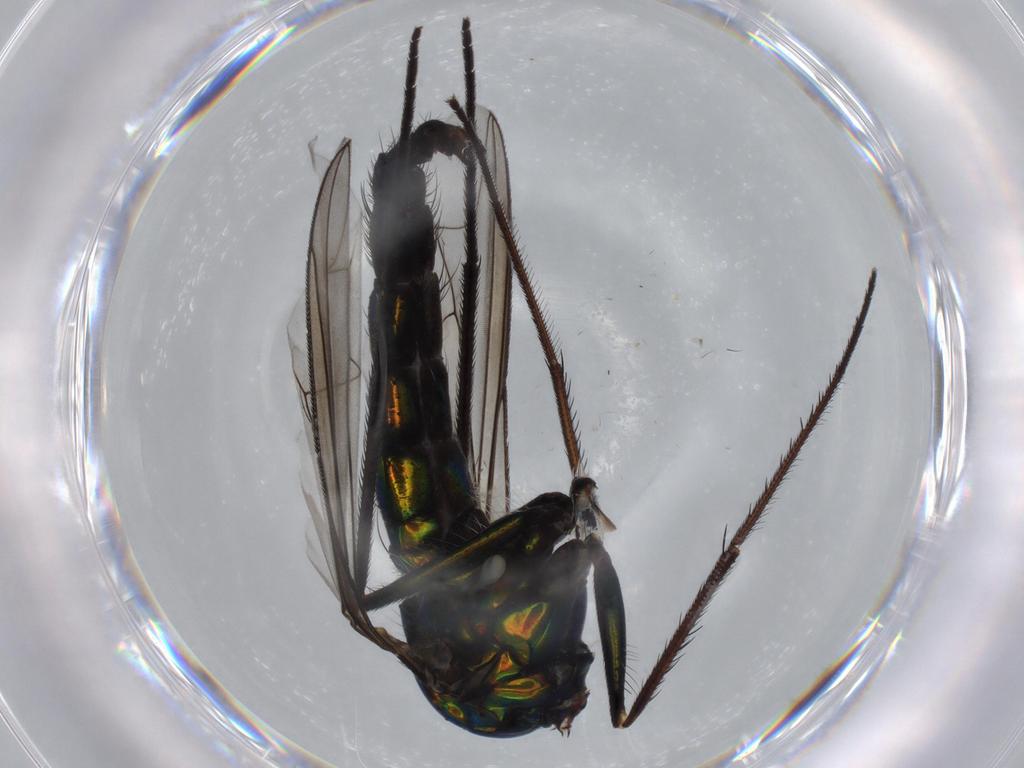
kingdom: Animalia
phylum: Arthropoda
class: Insecta
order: Diptera
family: Dolichopodidae
